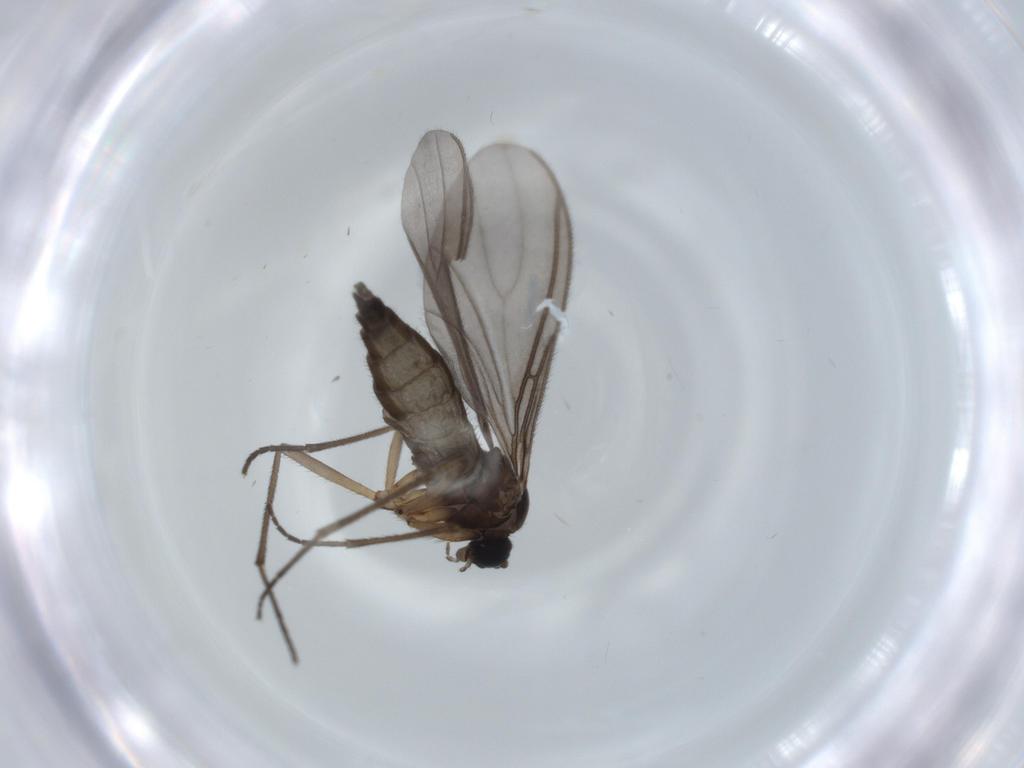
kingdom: Animalia
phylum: Arthropoda
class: Insecta
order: Diptera
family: Sciaridae
